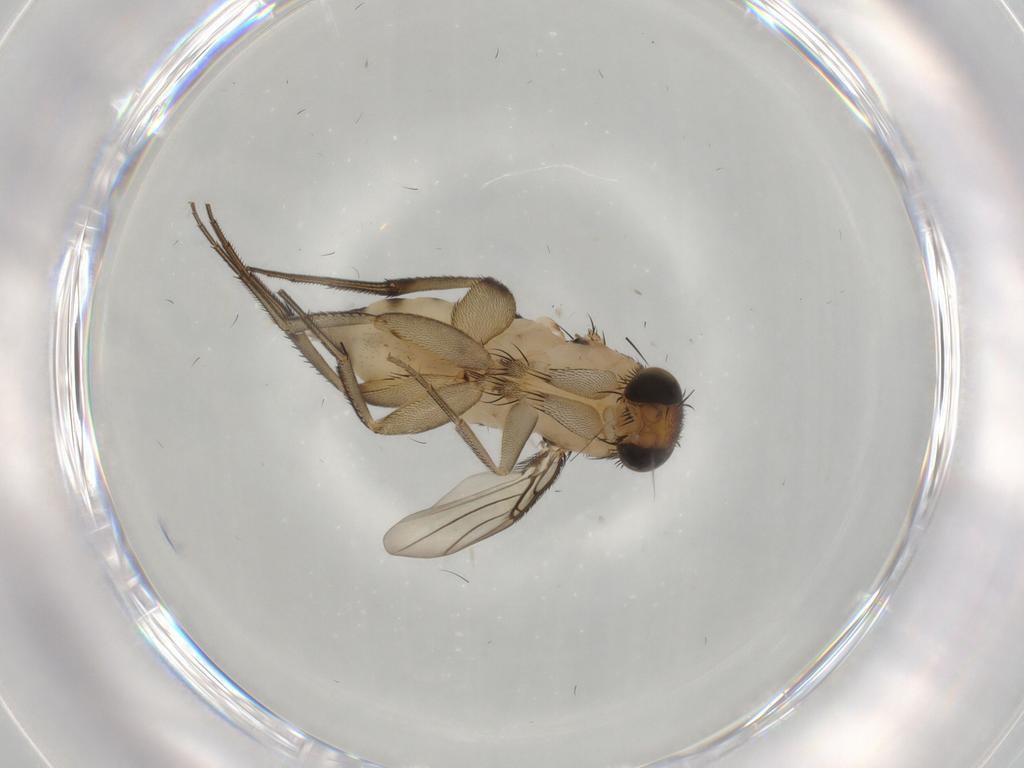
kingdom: Animalia
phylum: Arthropoda
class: Insecta
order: Diptera
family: Phoridae
